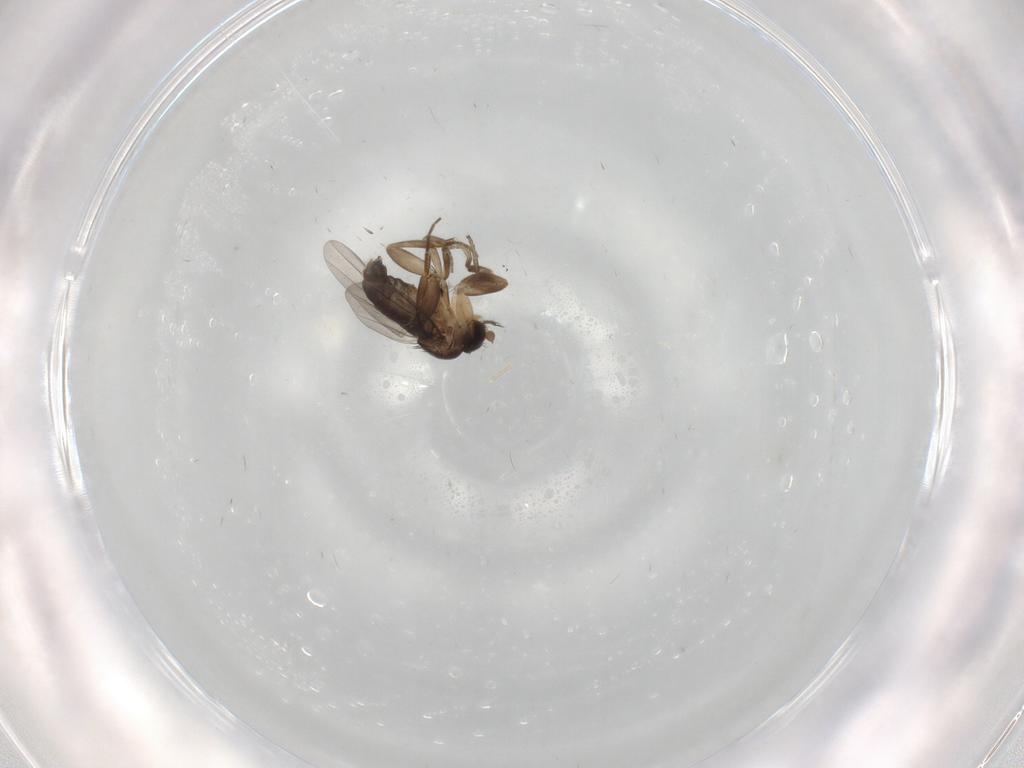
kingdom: Animalia
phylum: Arthropoda
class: Insecta
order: Diptera
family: Phoridae
